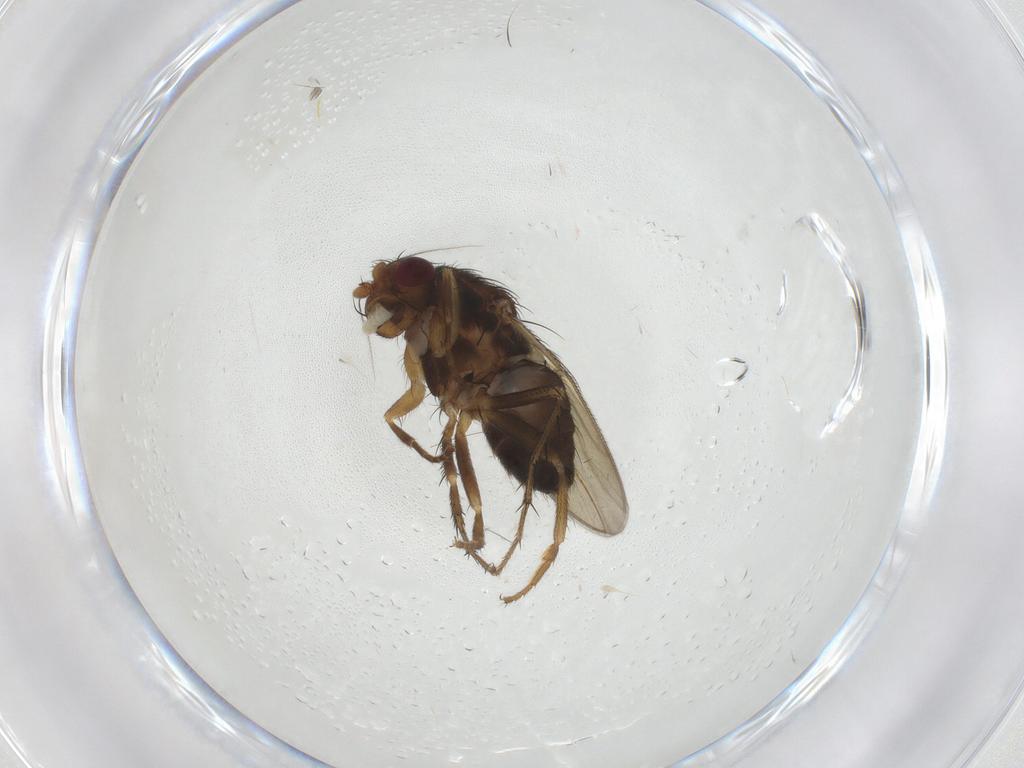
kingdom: Animalia
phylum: Arthropoda
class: Insecta
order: Diptera
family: Sphaeroceridae
